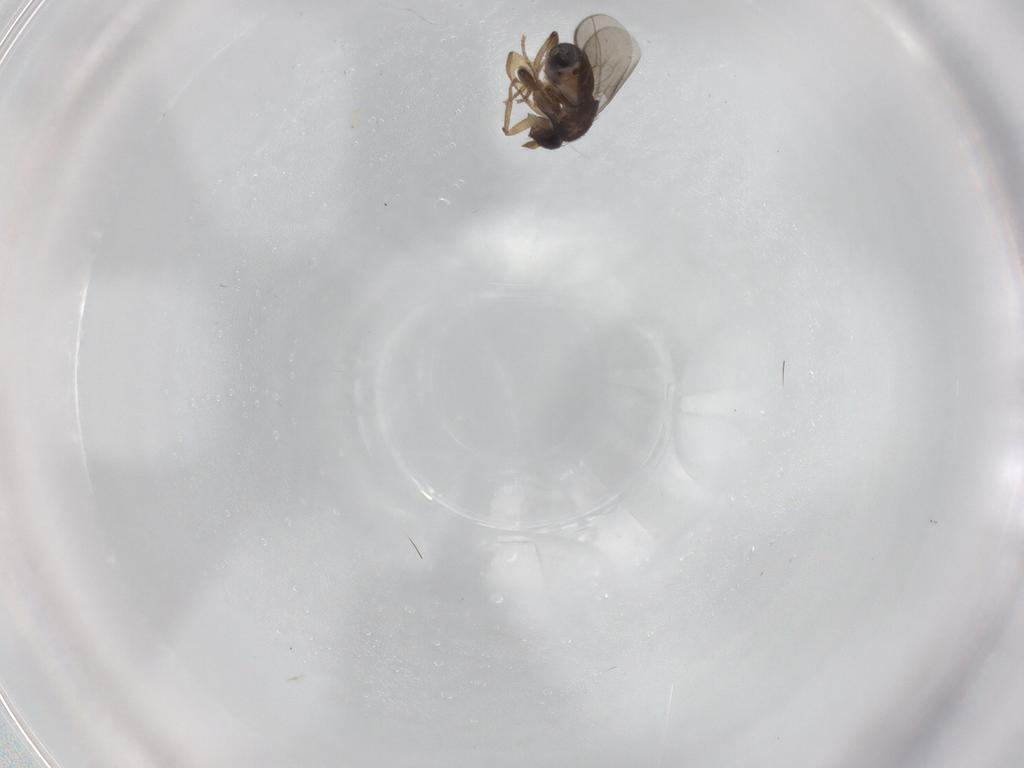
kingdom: Animalia
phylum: Arthropoda
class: Insecta
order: Diptera
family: Sphaeroceridae
